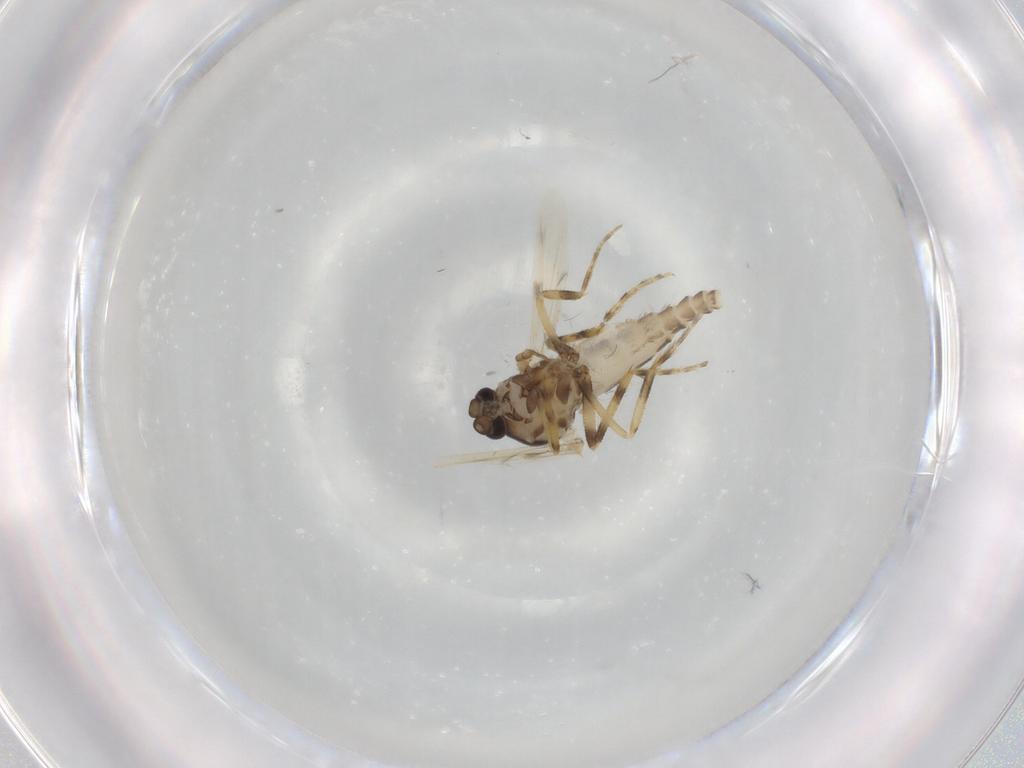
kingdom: Animalia
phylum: Arthropoda
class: Insecta
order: Diptera
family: Ceratopogonidae
